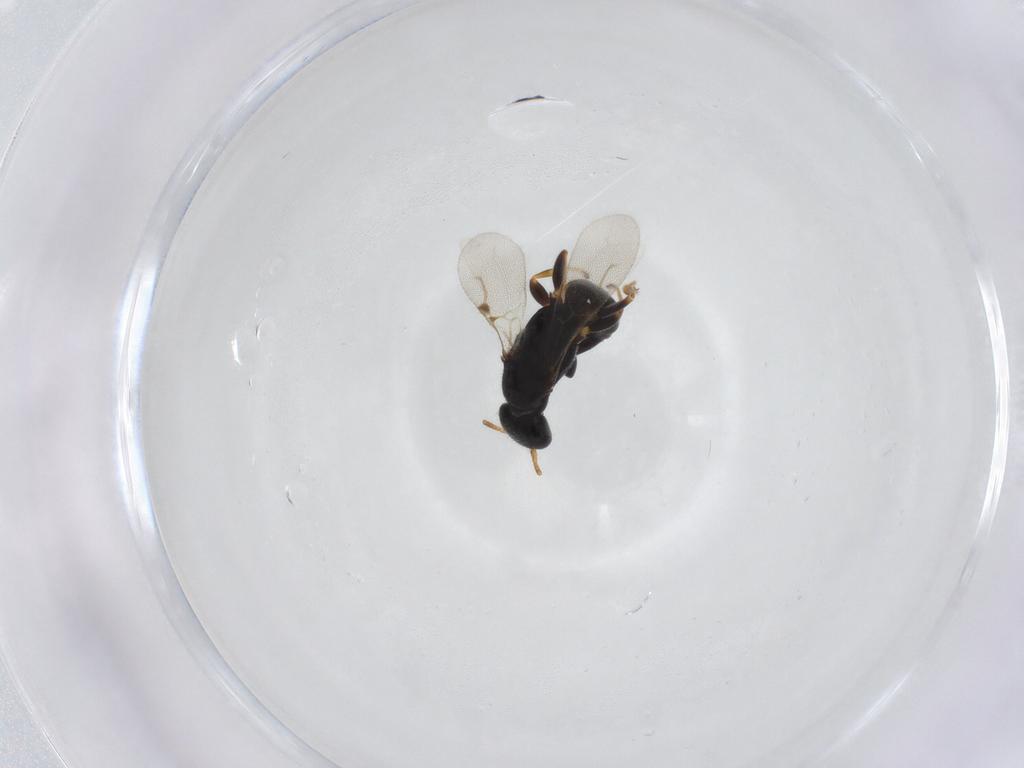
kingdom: Animalia
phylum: Arthropoda
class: Insecta
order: Hymenoptera
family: Bethylidae
